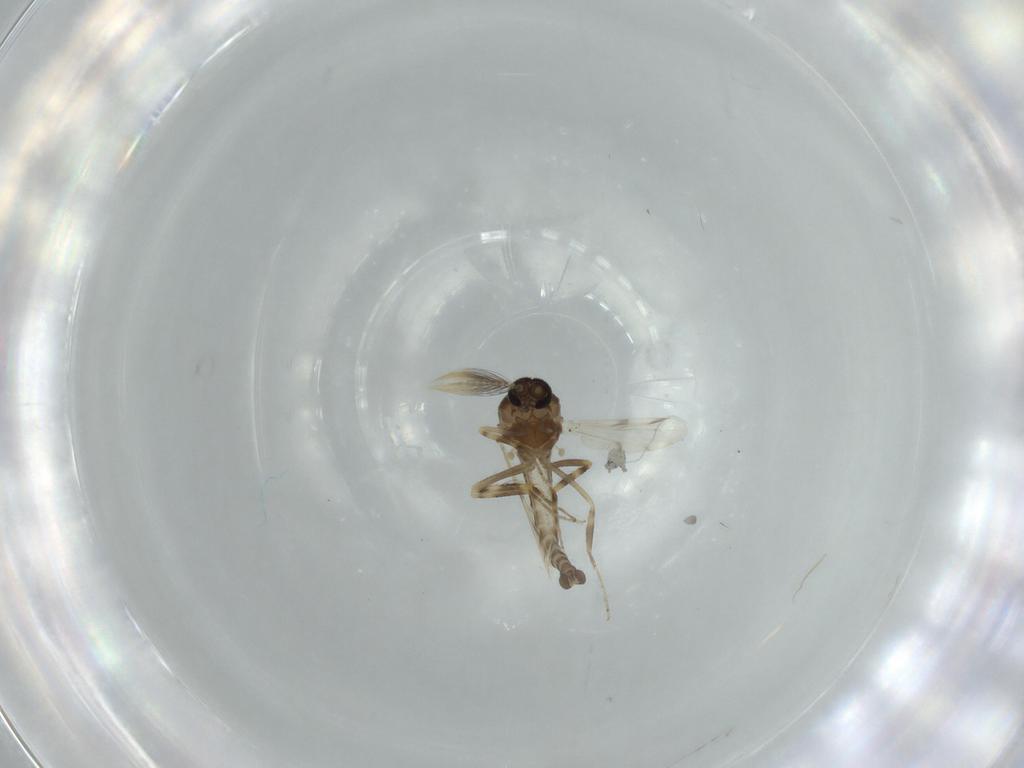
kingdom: Animalia
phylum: Arthropoda
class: Insecta
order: Diptera
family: Ceratopogonidae
